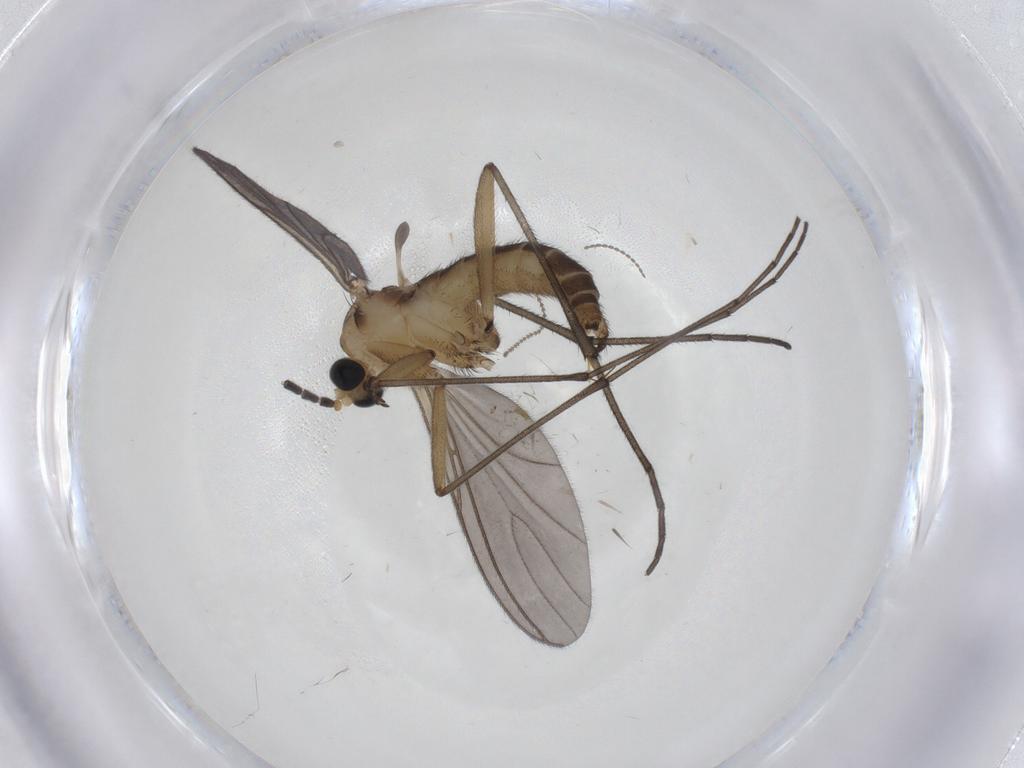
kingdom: Animalia
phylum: Arthropoda
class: Insecta
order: Diptera
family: Sciaridae
